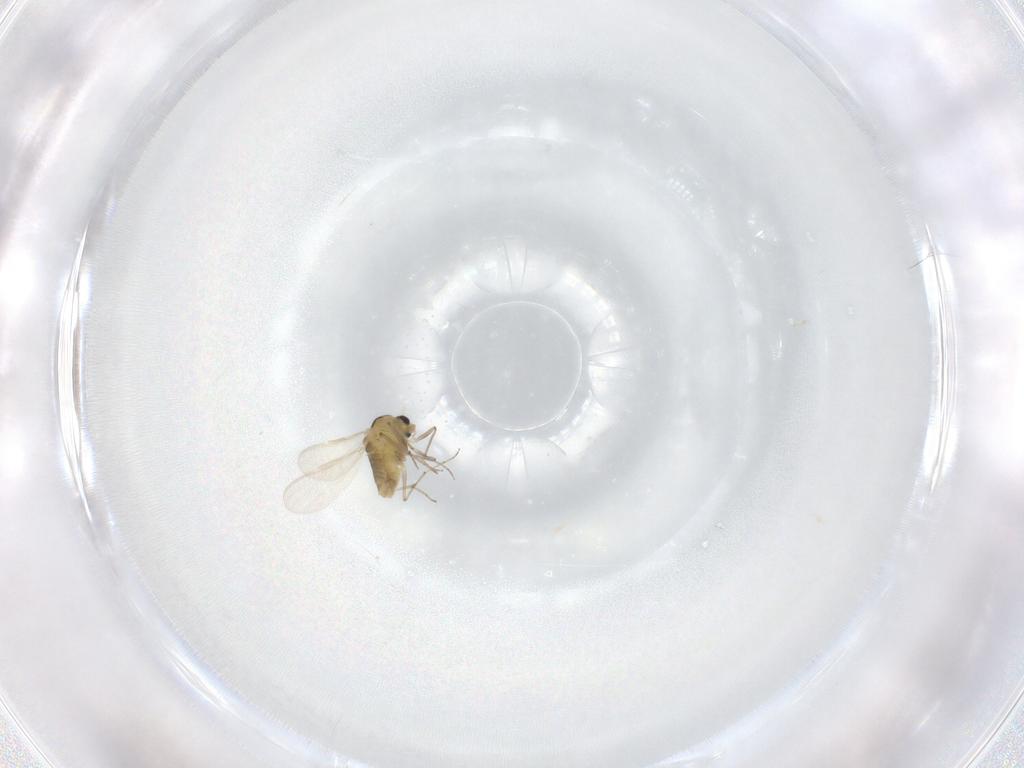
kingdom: Animalia
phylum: Arthropoda
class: Insecta
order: Diptera
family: Chironomidae
